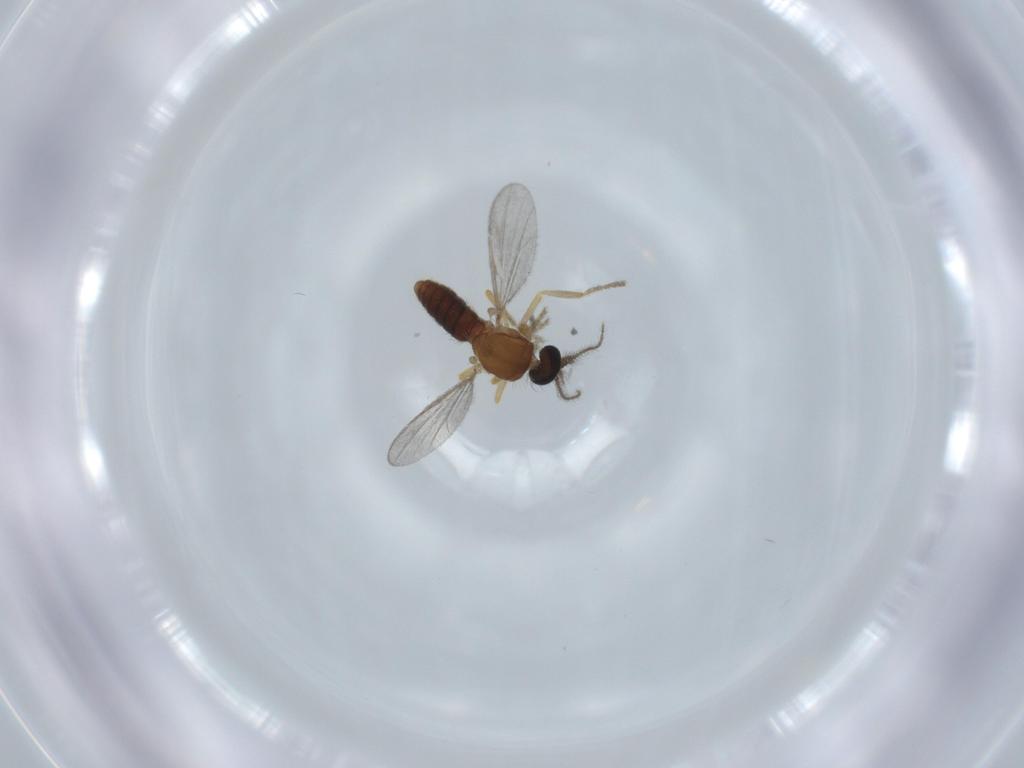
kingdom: Animalia
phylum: Arthropoda
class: Insecta
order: Diptera
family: Ceratopogonidae
